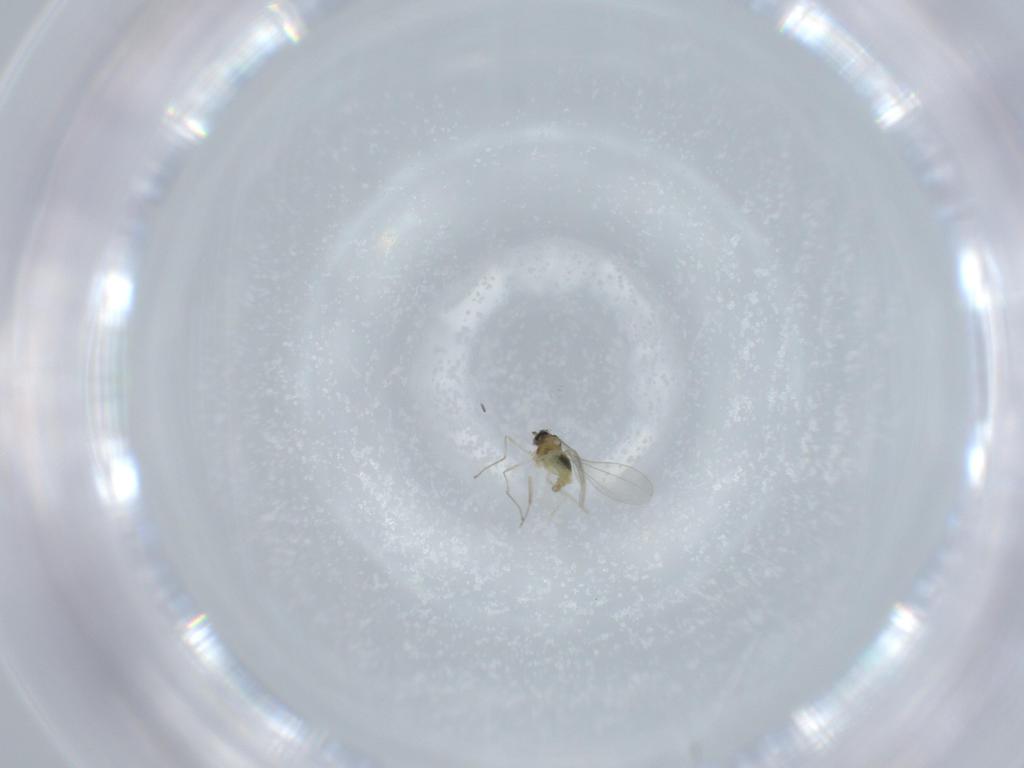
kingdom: Animalia
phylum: Arthropoda
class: Insecta
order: Diptera
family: Cecidomyiidae
